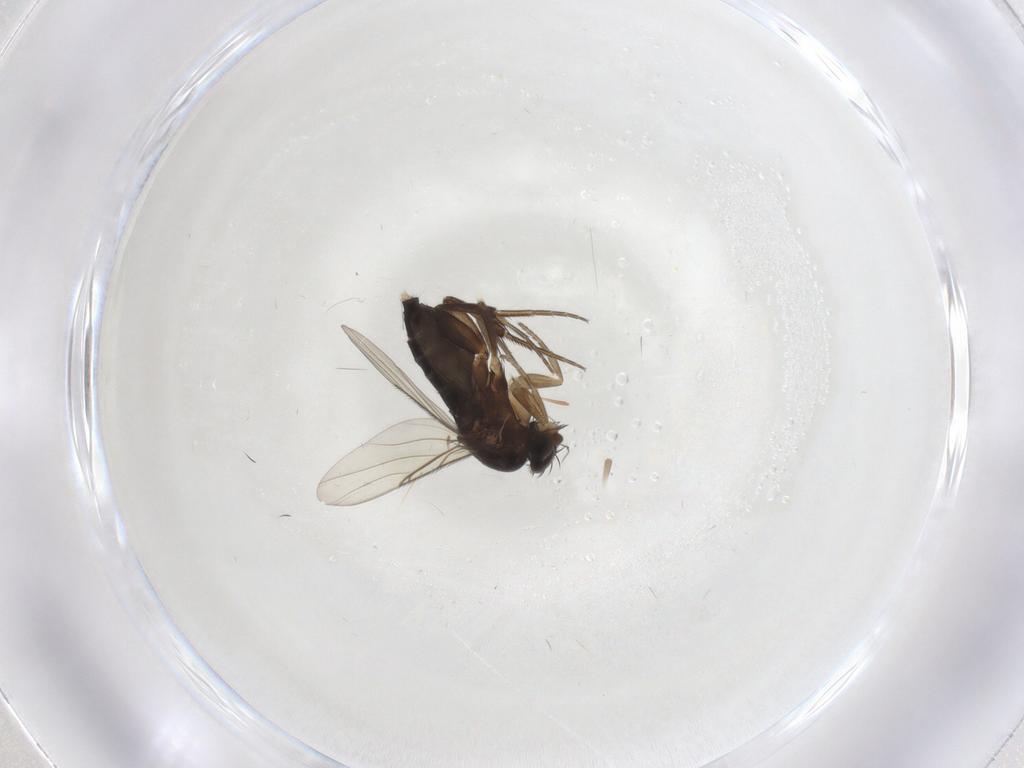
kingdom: Animalia
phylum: Arthropoda
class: Insecta
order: Diptera
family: Phoridae
